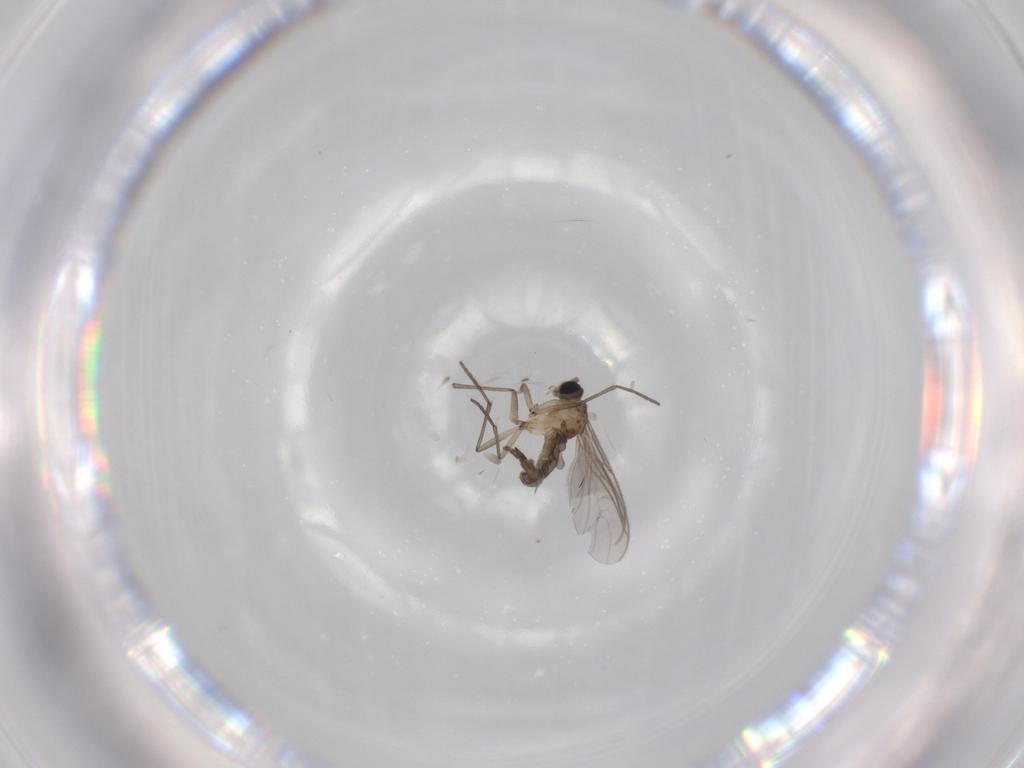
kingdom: Animalia
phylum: Arthropoda
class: Insecta
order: Diptera
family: Sciaridae
